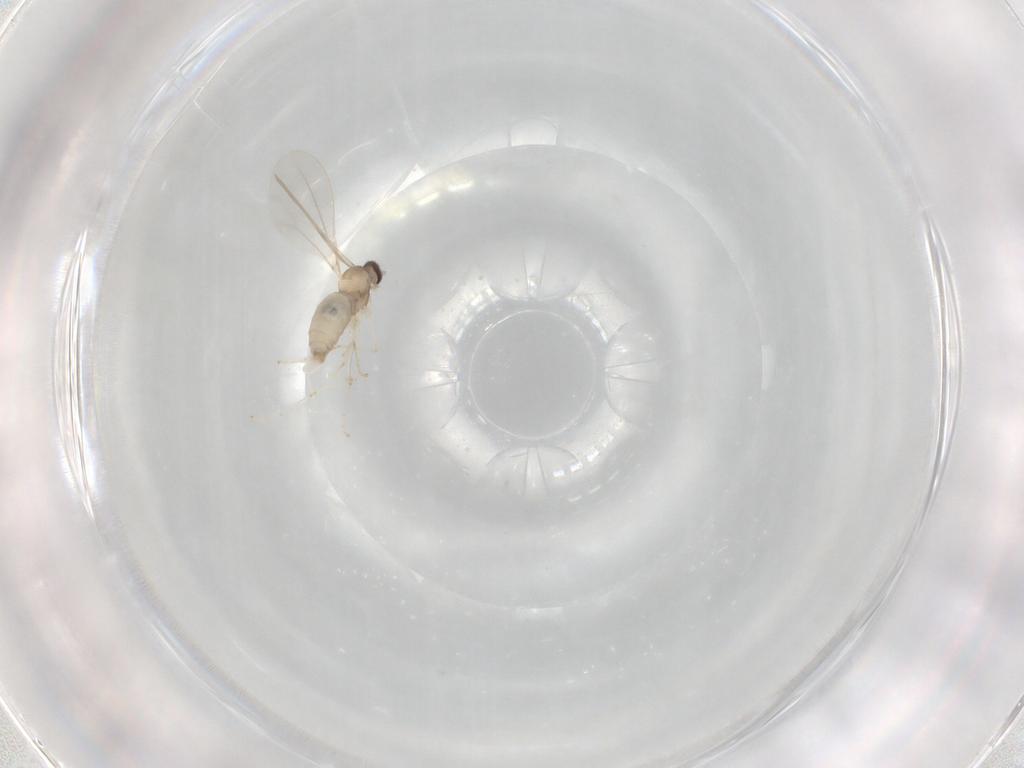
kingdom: Animalia
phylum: Arthropoda
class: Insecta
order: Diptera
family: Cecidomyiidae
